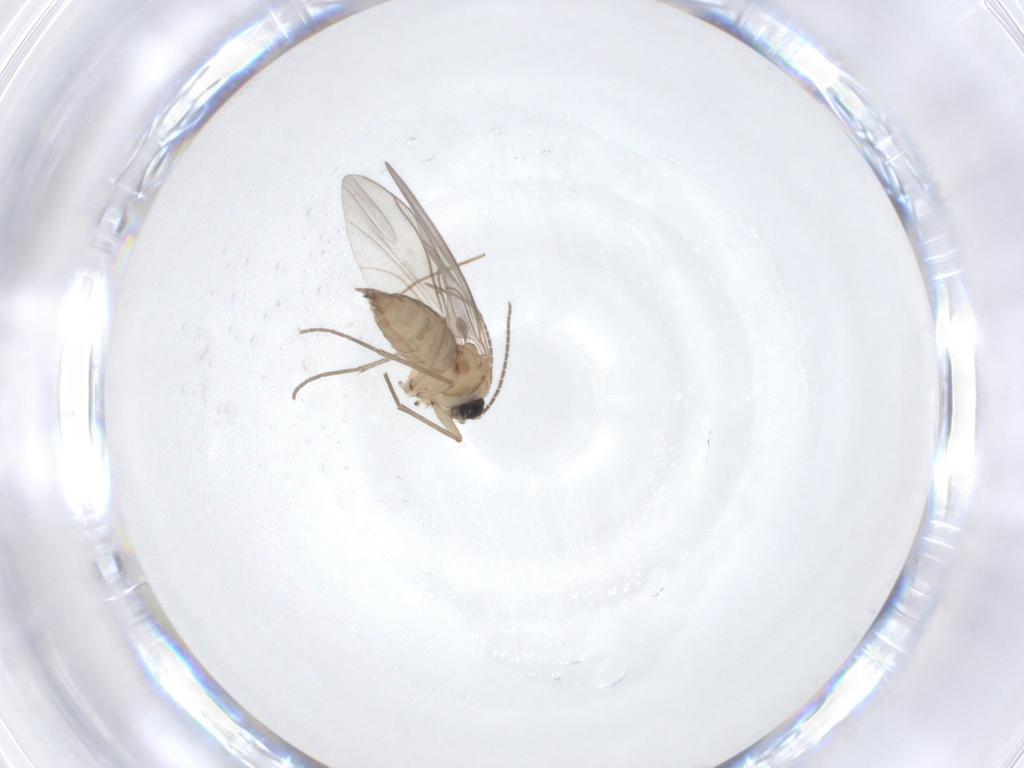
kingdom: Animalia
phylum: Arthropoda
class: Insecta
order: Diptera
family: Sciaridae
